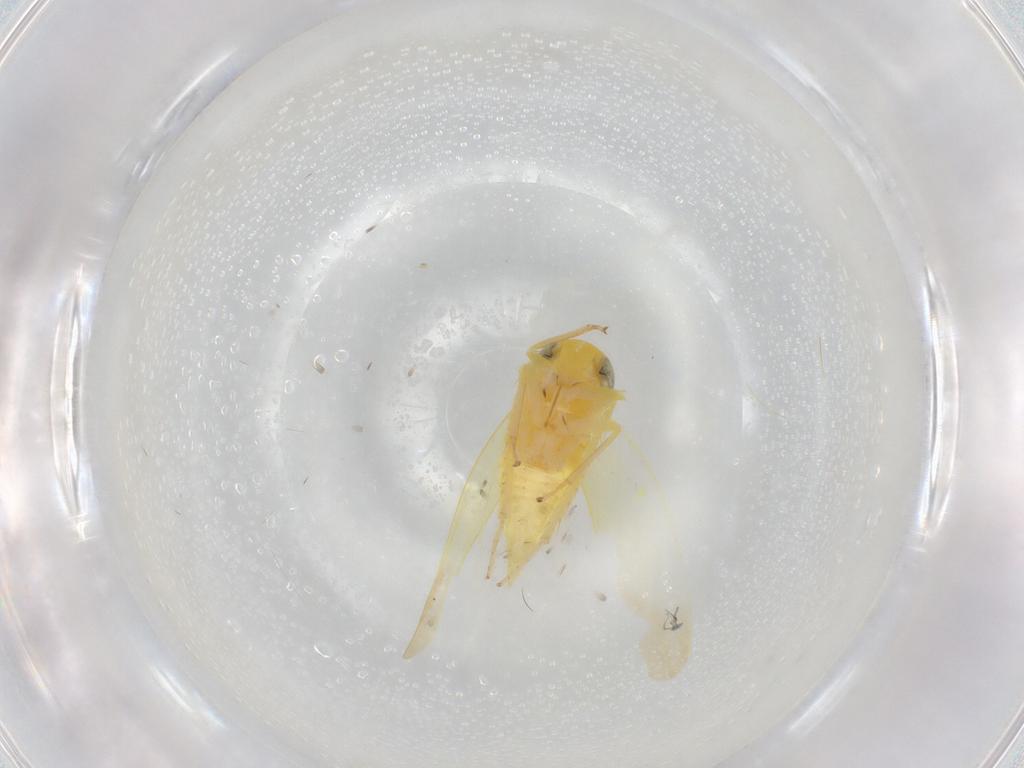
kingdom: Animalia
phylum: Arthropoda
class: Insecta
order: Hemiptera
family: Cicadellidae
